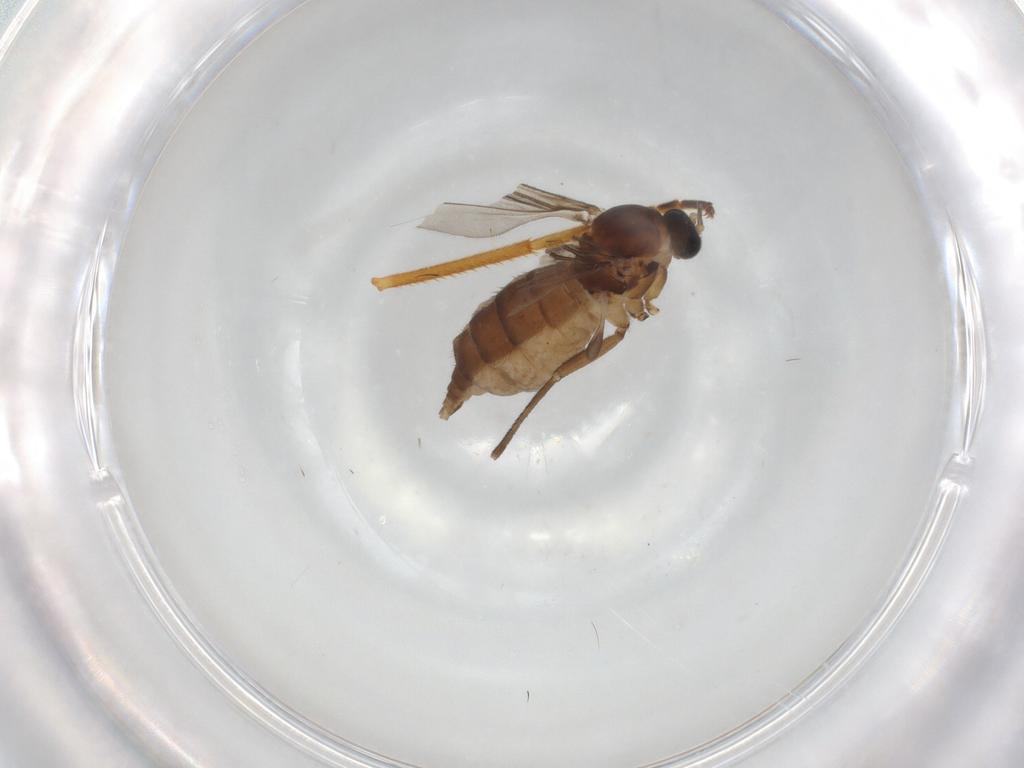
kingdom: Animalia
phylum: Arthropoda
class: Insecta
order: Diptera
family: Sciaridae
